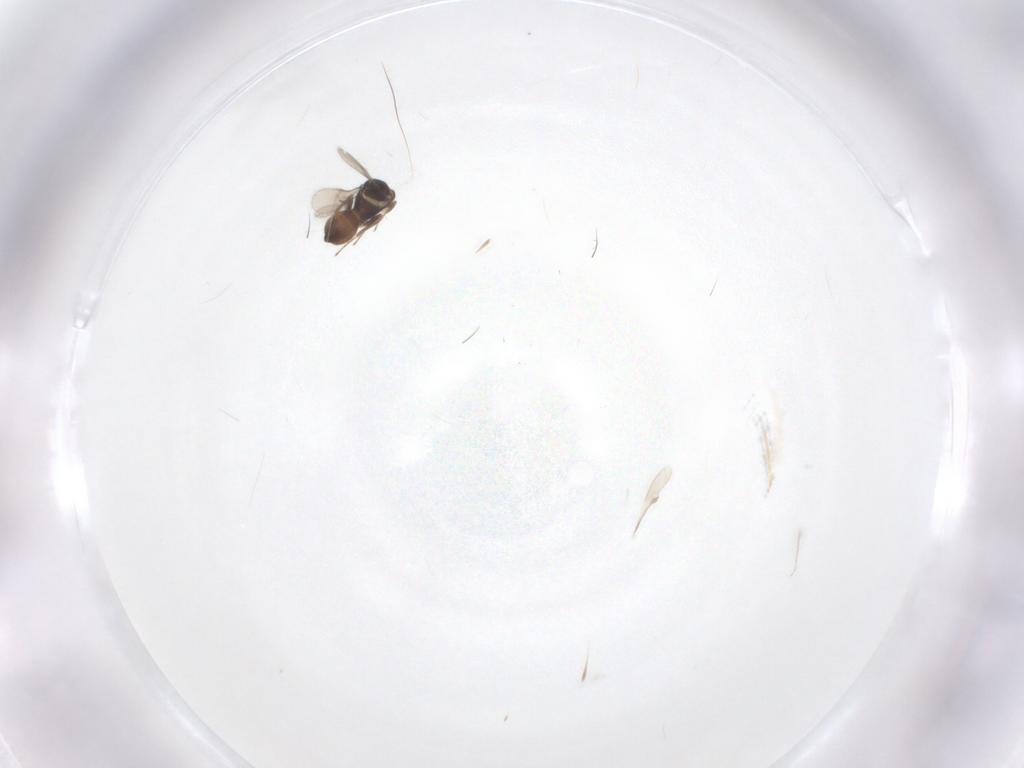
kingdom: Animalia
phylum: Arthropoda
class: Insecta
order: Hymenoptera
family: Scelionidae
